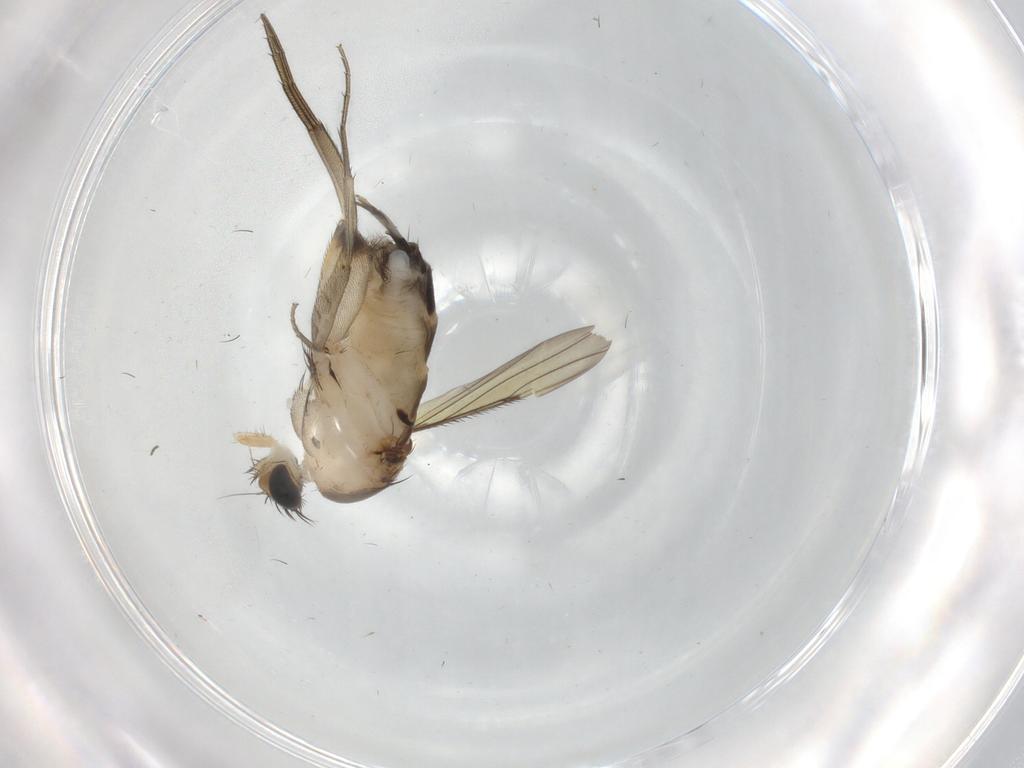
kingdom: Animalia
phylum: Arthropoda
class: Insecta
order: Diptera
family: Phoridae
